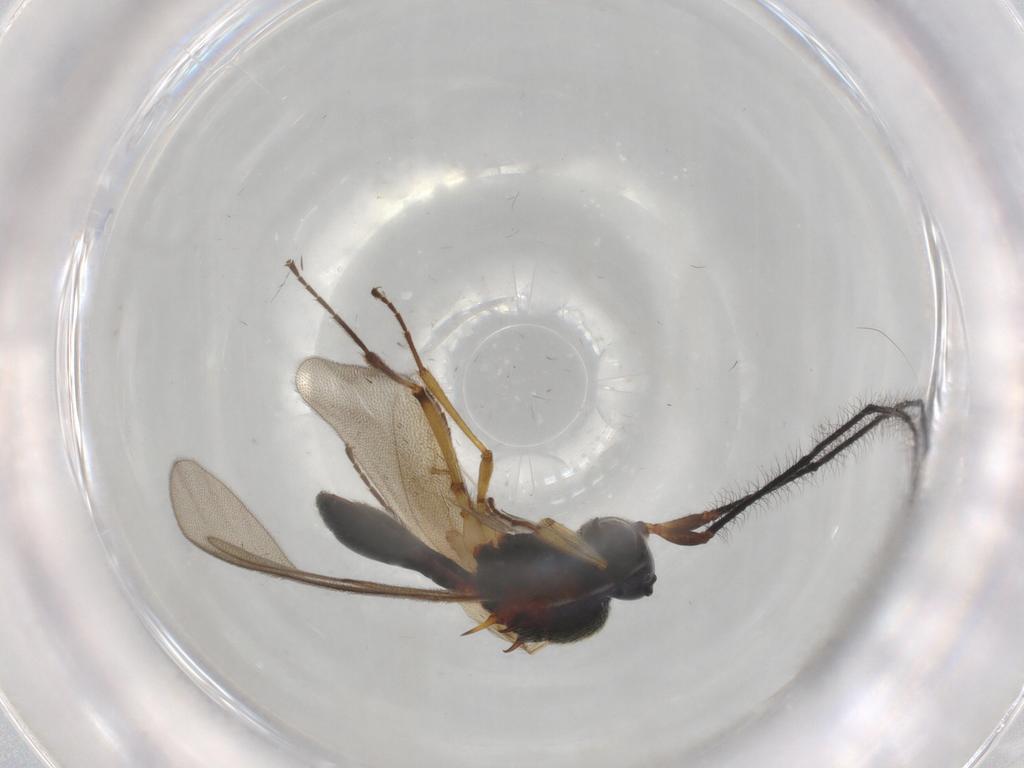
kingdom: Animalia
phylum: Arthropoda
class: Insecta
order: Hymenoptera
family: Scelionidae
